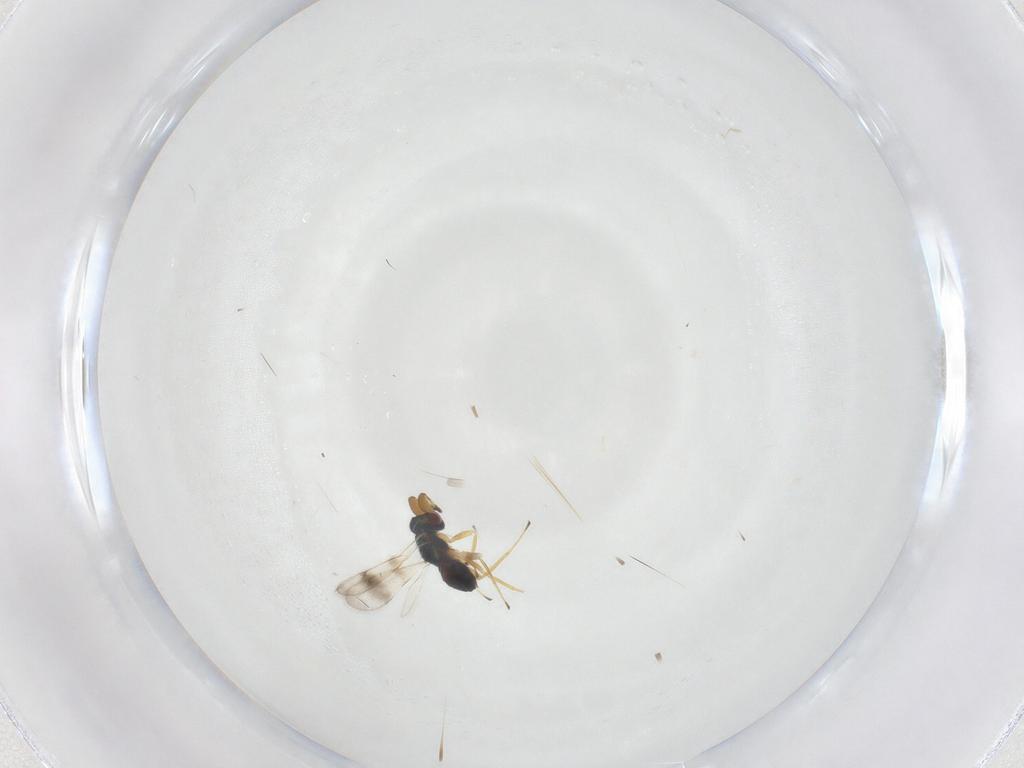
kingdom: Animalia
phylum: Arthropoda
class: Insecta
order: Hymenoptera
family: Tetracampidae
